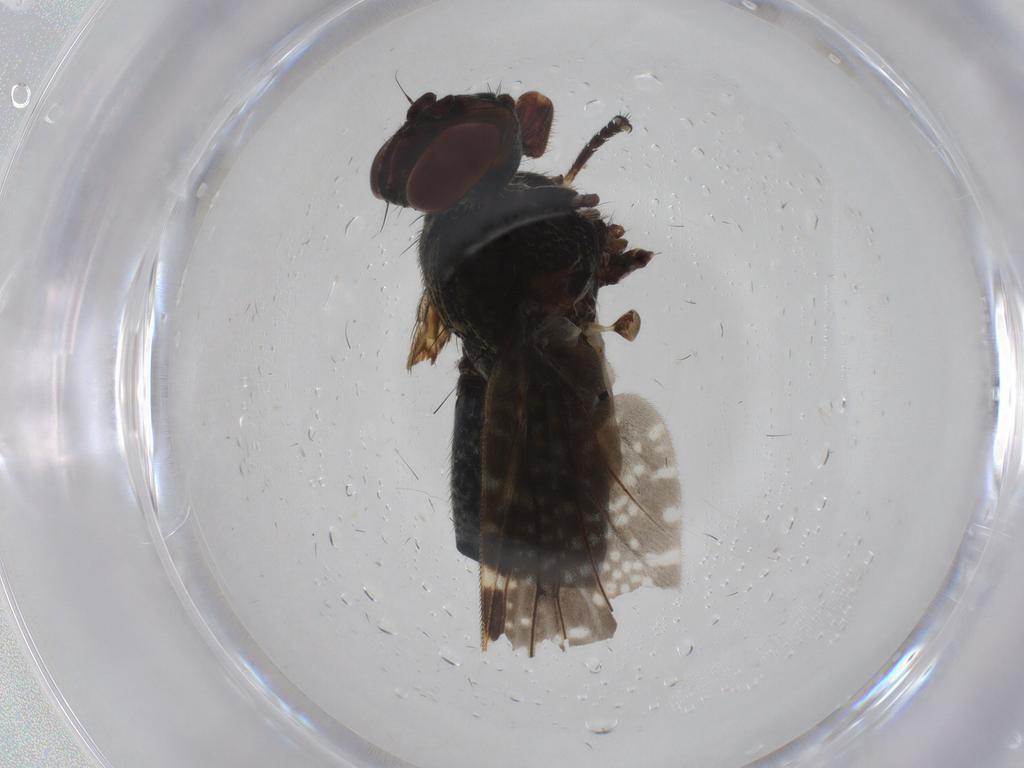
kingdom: Animalia
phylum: Arthropoda
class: Insecta
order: Diptera
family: Platystomatidae
